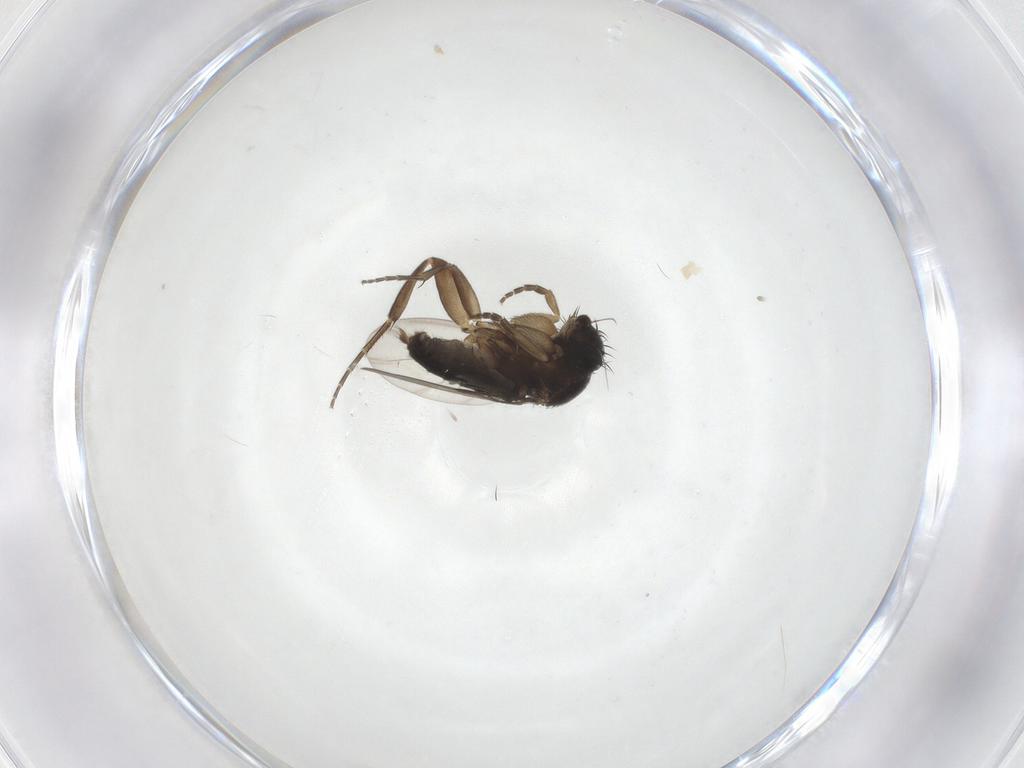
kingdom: Animalia
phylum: Arthropoda
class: Insecta
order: Diptera
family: Phoridae
